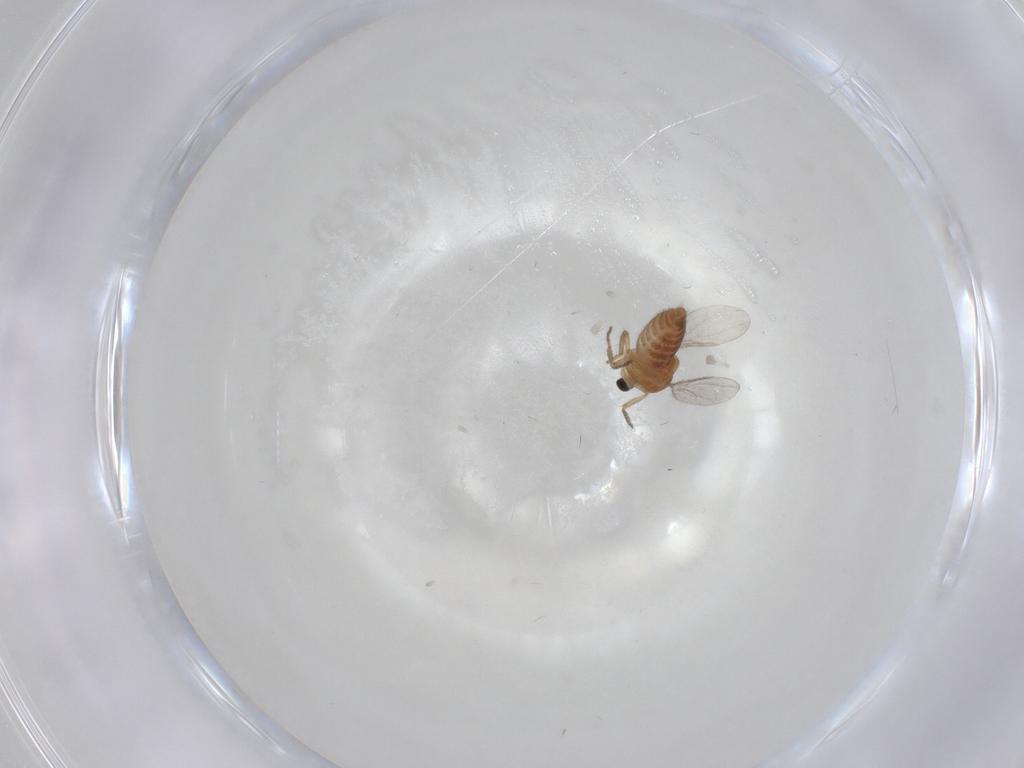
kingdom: Animalia
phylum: Arthropoda
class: Insecta
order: Diptera
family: Ceratopogonidae
